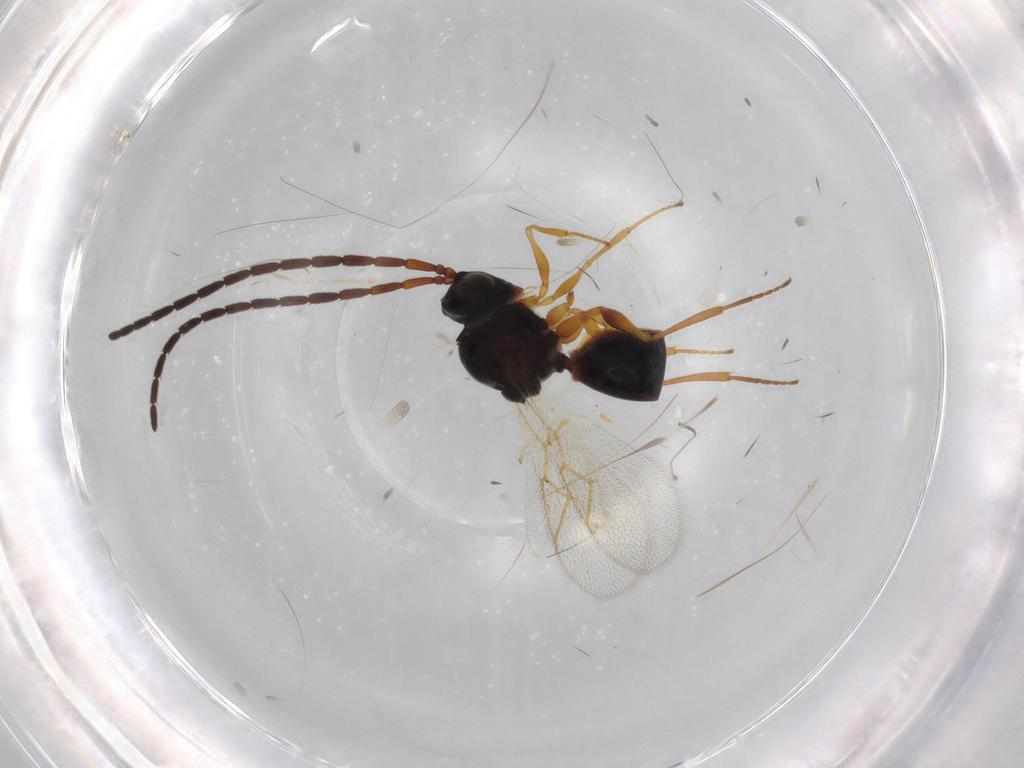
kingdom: Animalia
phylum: Arthropoda
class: Insecta
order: Hymenoptera
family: Figitidae
